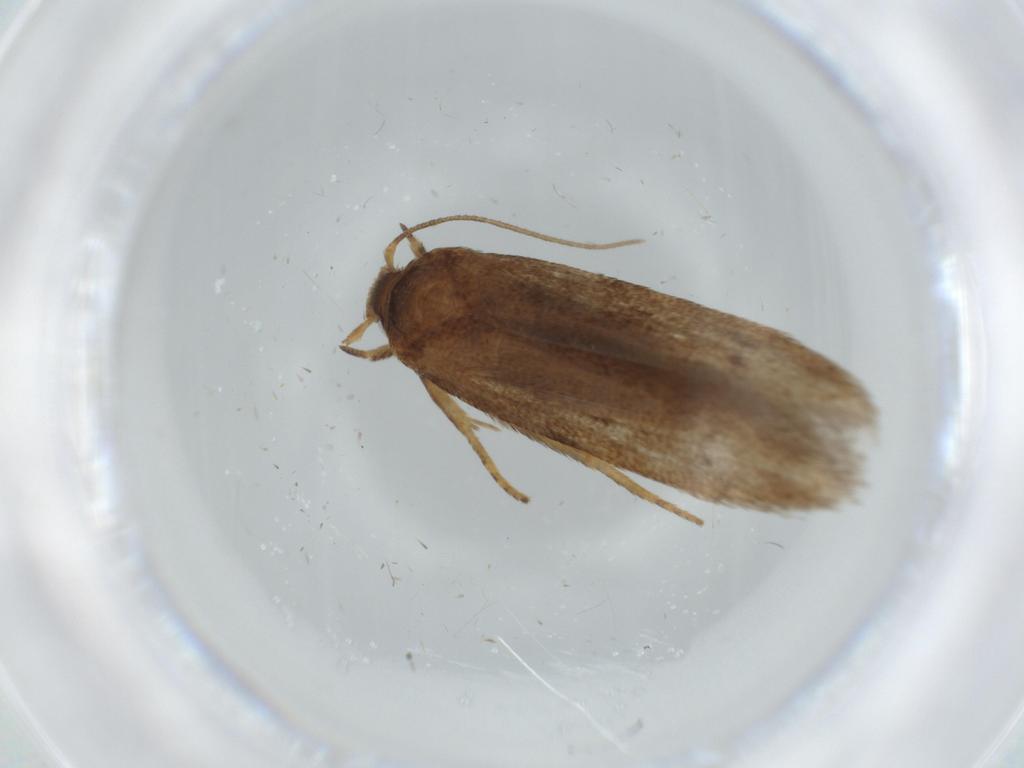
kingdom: Animalia
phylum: Arthropoda
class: Insecta
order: Lepidoptera
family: Coleophoridae
